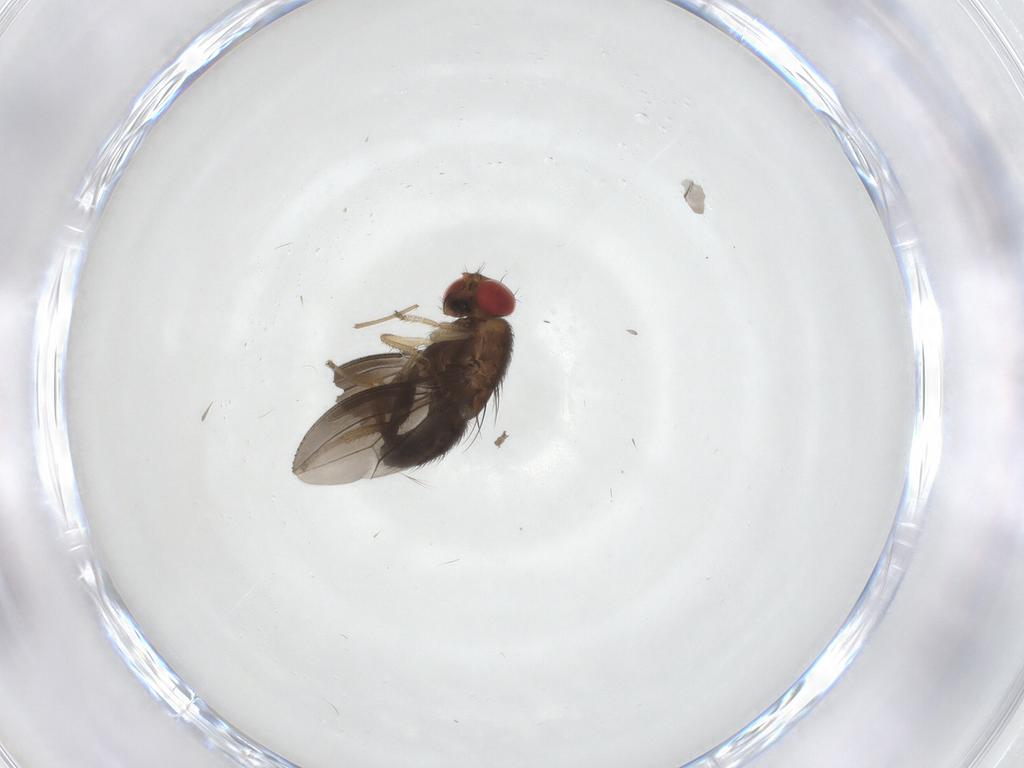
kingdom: Animalia
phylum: Arthropoda
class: Insecta
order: Diptera
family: Drosophilidae
